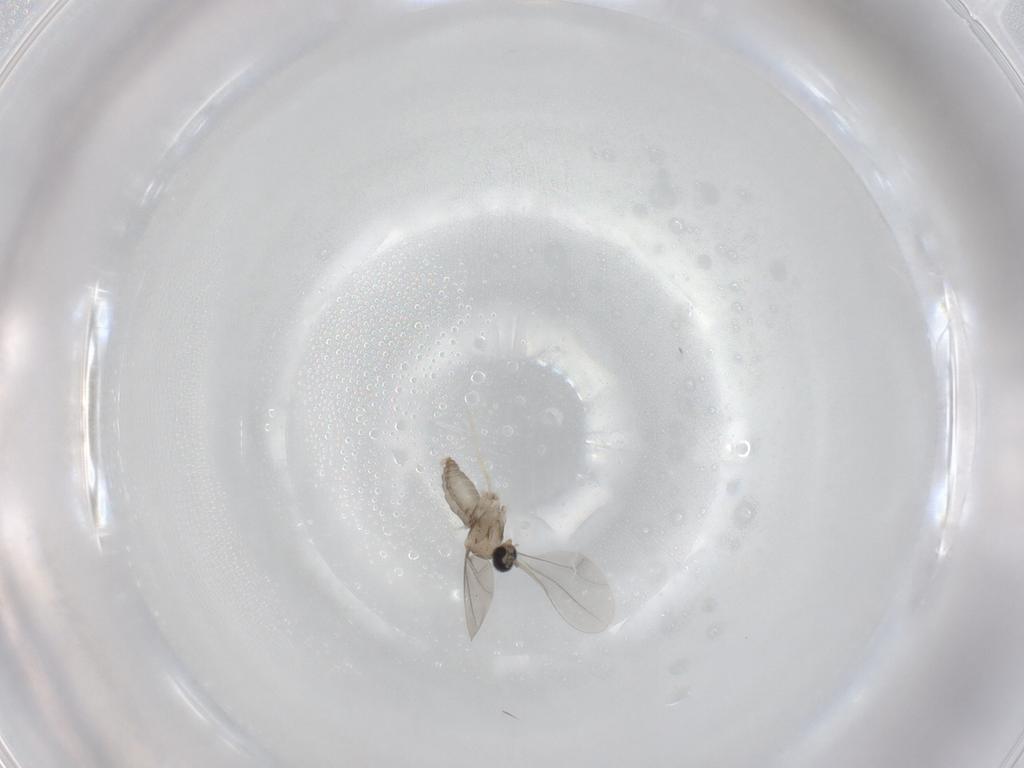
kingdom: Animalia
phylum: Arthropoda
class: Insecta
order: Diptera
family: Cecidomyiidae
